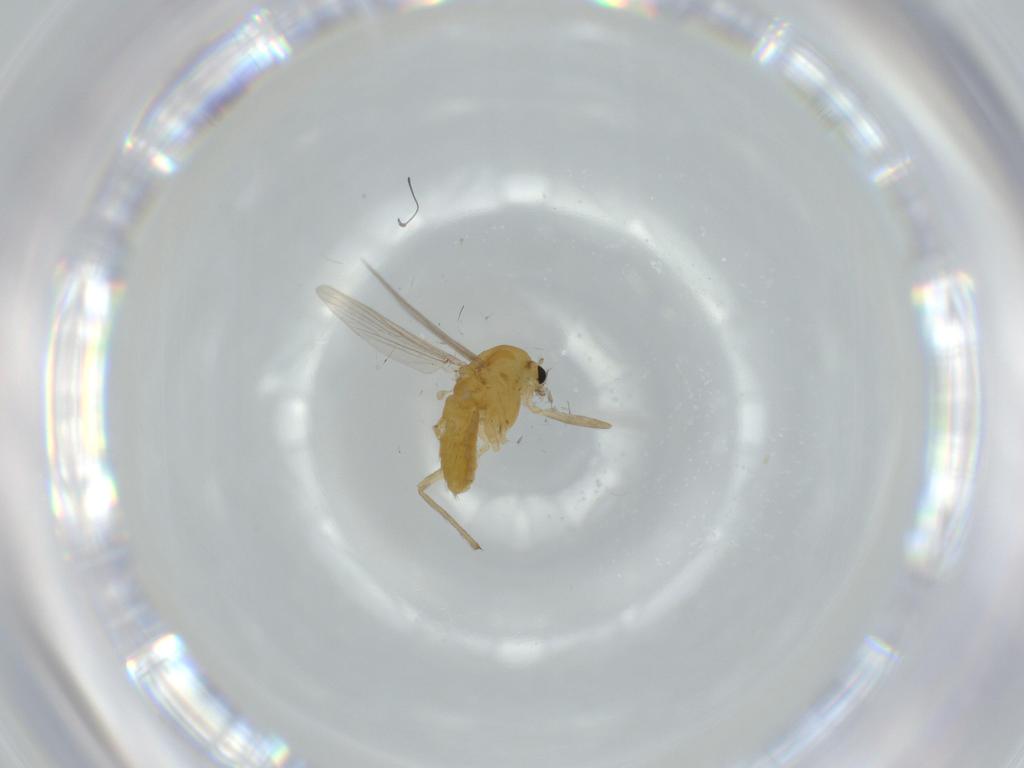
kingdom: Animalia
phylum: Arthropoda
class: Insecta
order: Diptera
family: Chironomidae
